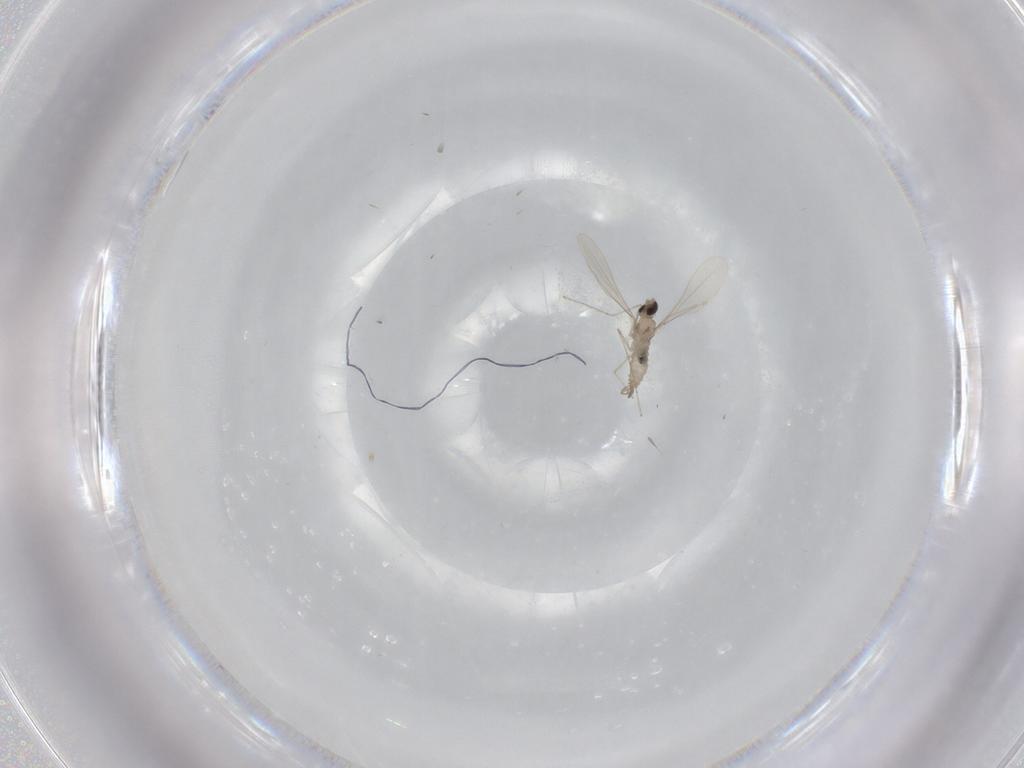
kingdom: Animalia
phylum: Arthropoda
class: Insecta
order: Diptera
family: Cecidomyiidae
